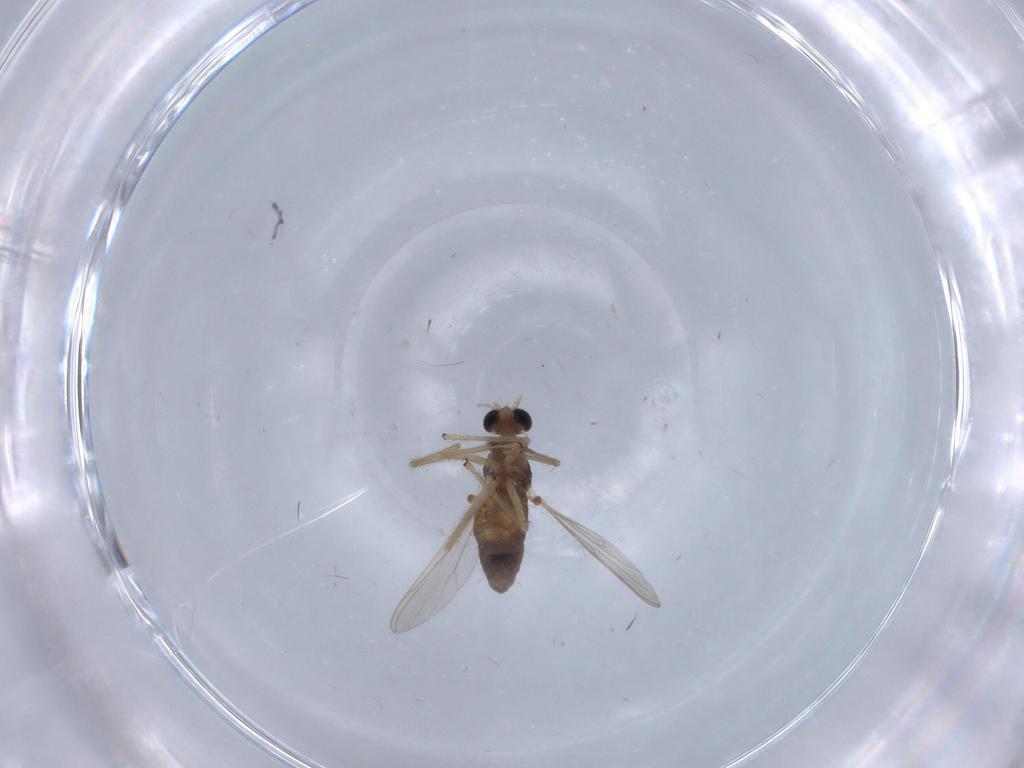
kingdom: Animalia
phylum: Arthropoda
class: Insecta
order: Diptera
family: Chironomidae
